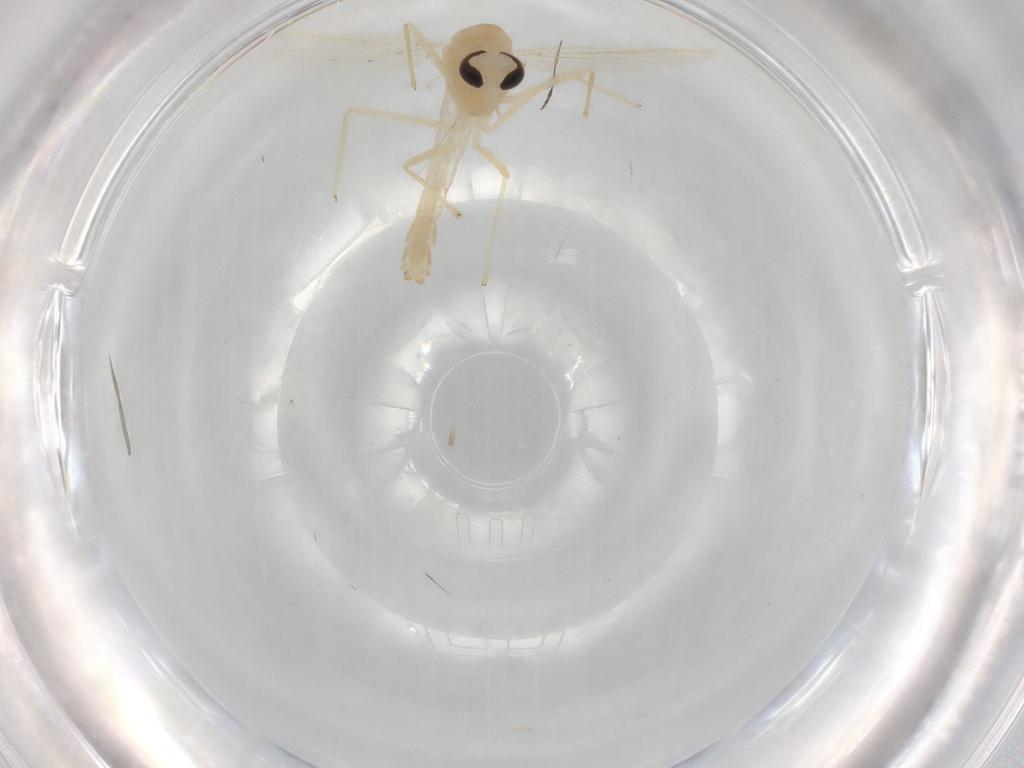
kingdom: Animalia
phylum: Arthropoda
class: Insecta
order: Diptera
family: Chironomidae
